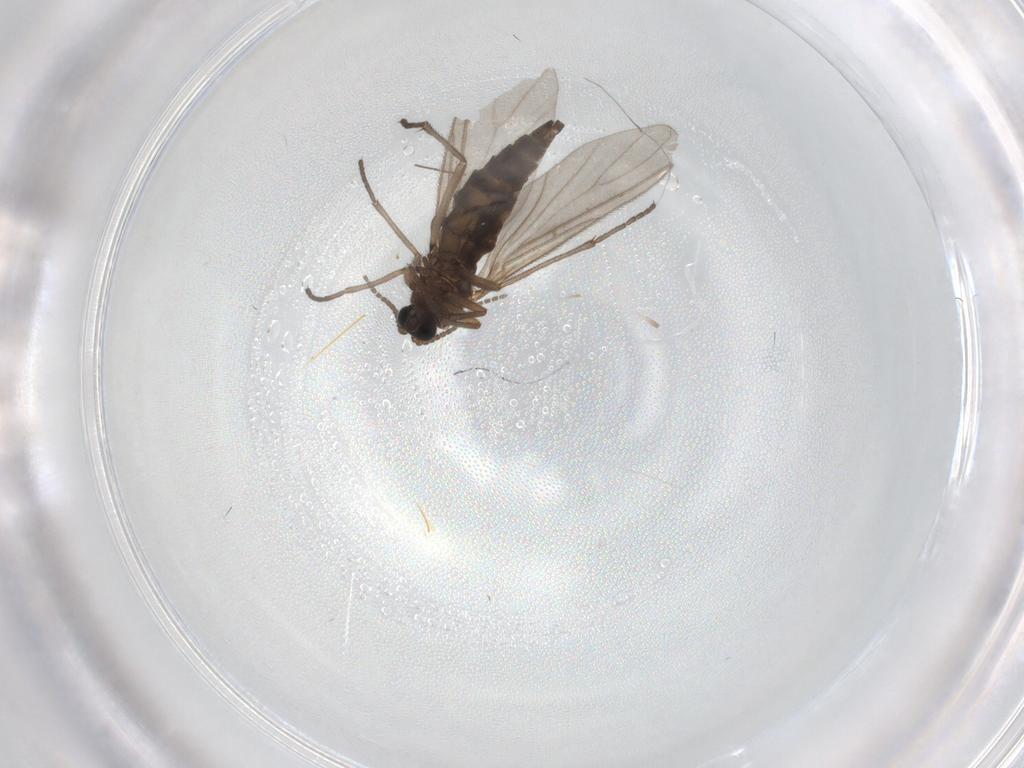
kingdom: Animalia
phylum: Arthropoda
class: Insecta
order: Diptera
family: Sciaridae
